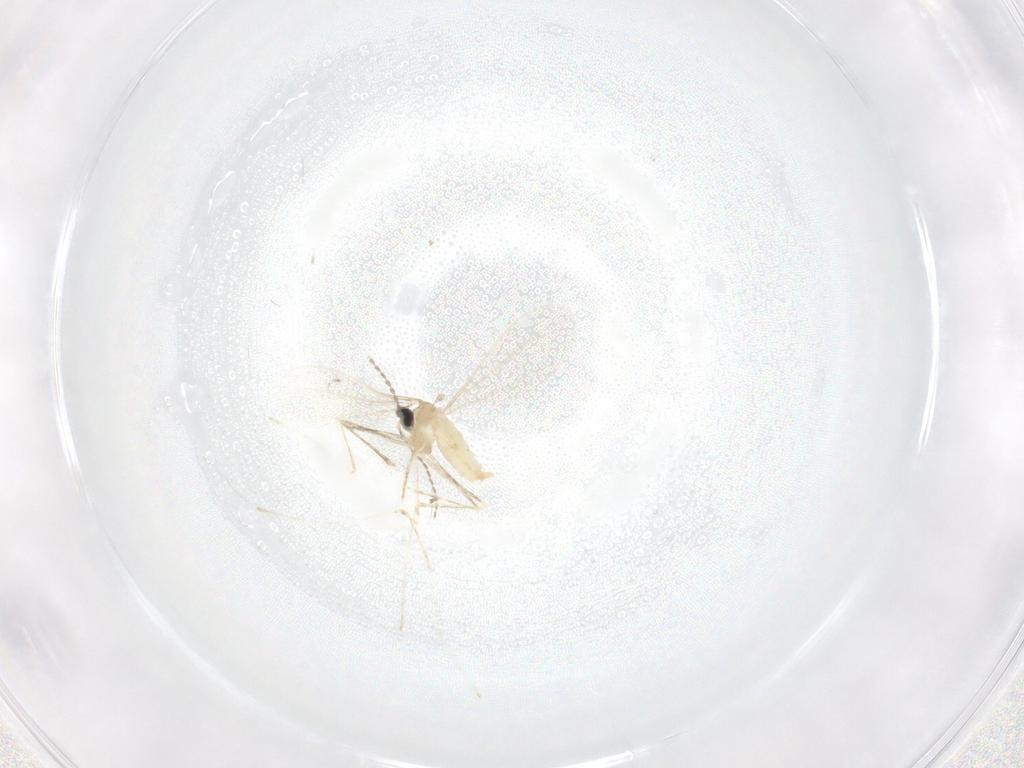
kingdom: Animalia
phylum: Arthropoda
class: Insecta
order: Diptera
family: Chironomidae
